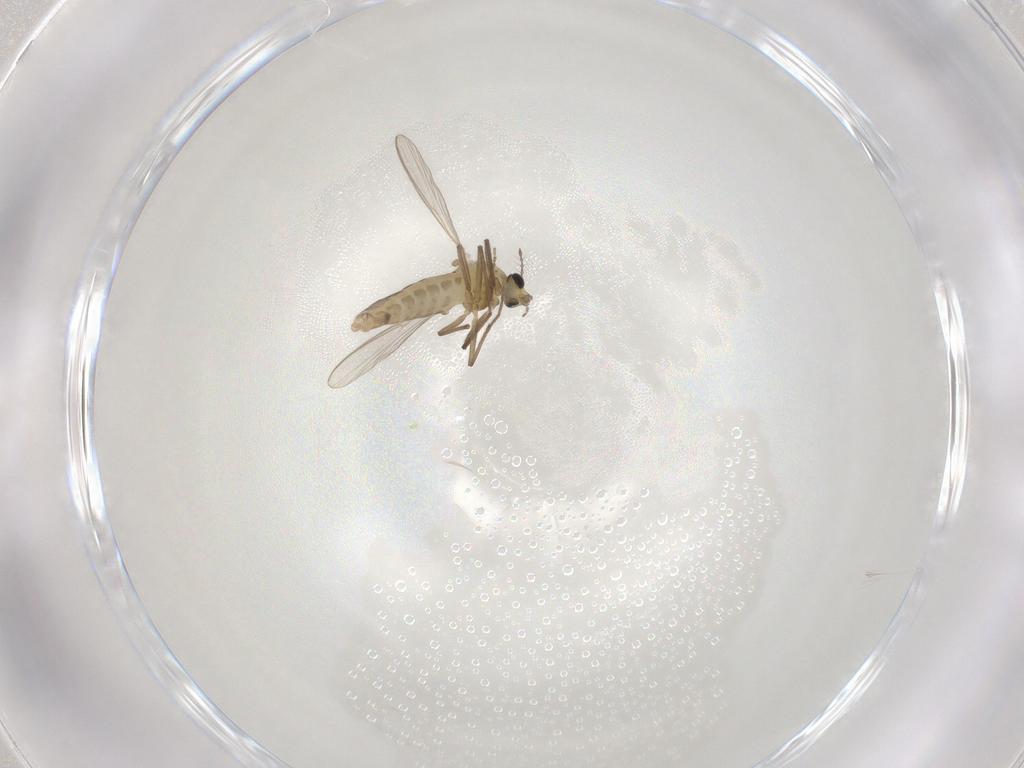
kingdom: Animalia
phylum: Arthropoda
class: Insecta
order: Diptera
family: Chironomidae
